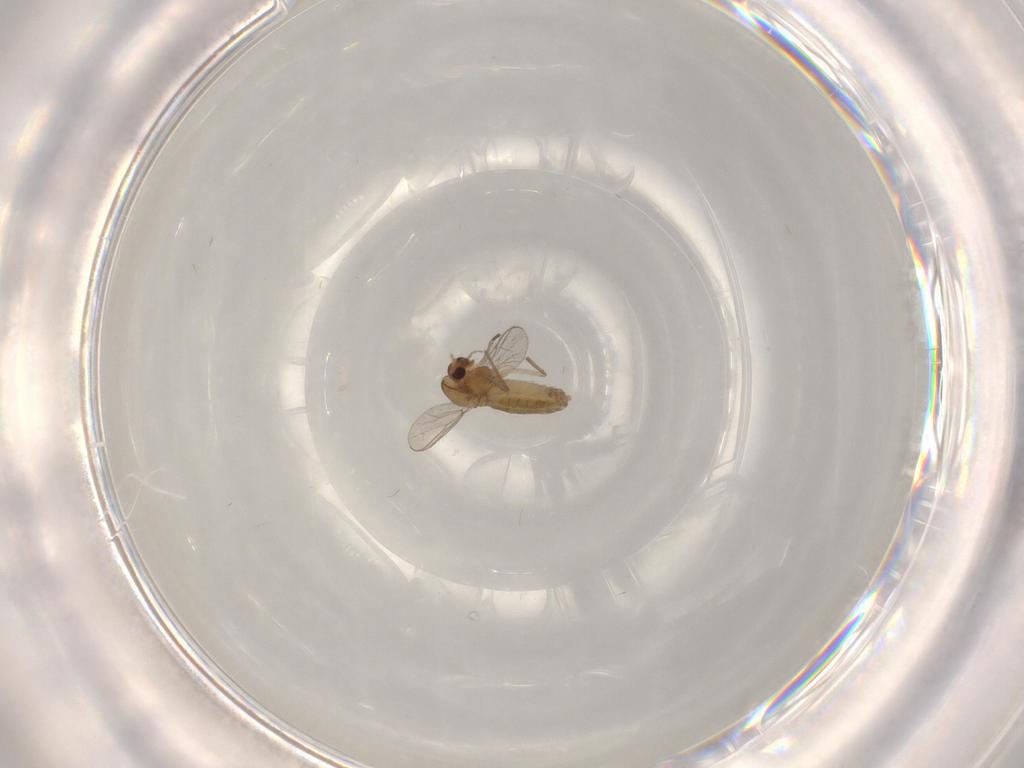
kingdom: Animalia
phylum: Arthropoda
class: Insecta
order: Diptera
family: Chironomidae
